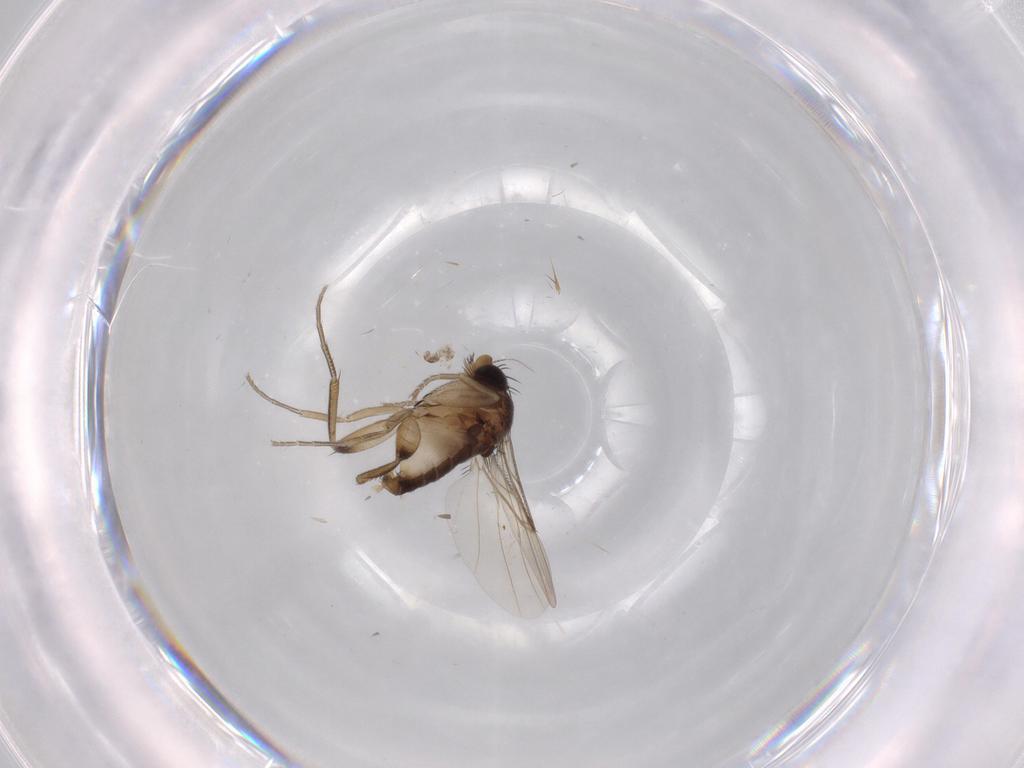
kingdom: Animalia
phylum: Arthropoda
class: Insecta
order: Diptera
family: Phoridae
